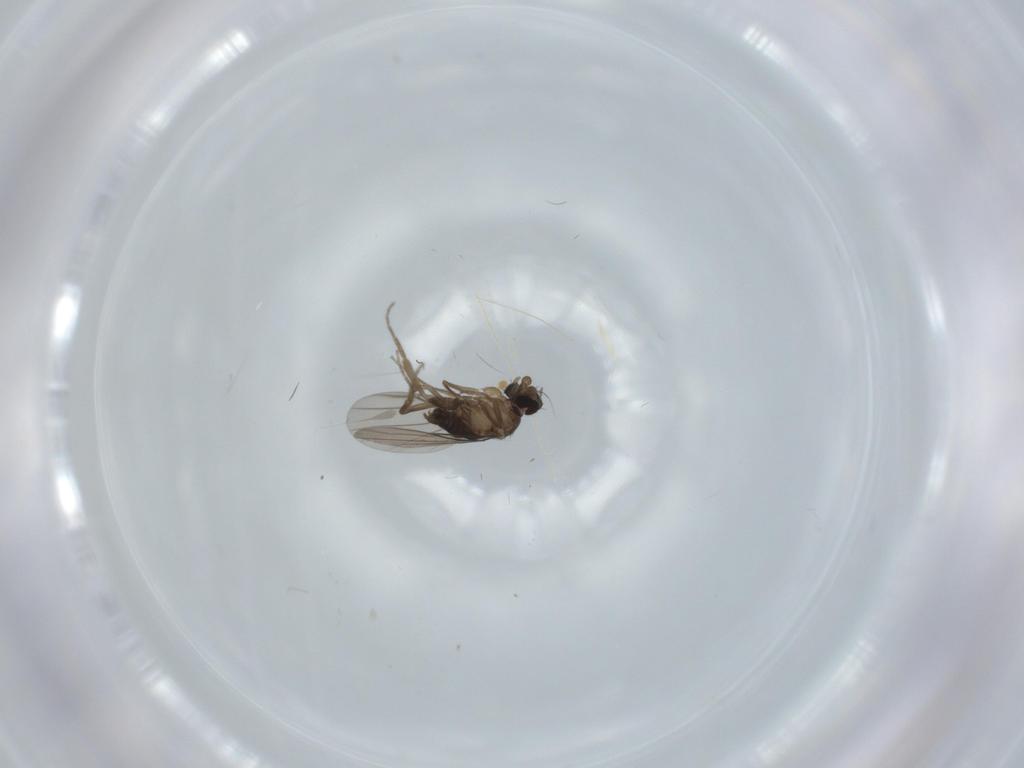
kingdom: Animalia
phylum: Arthropoda
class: Insecta
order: Diptera
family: Phoridae
